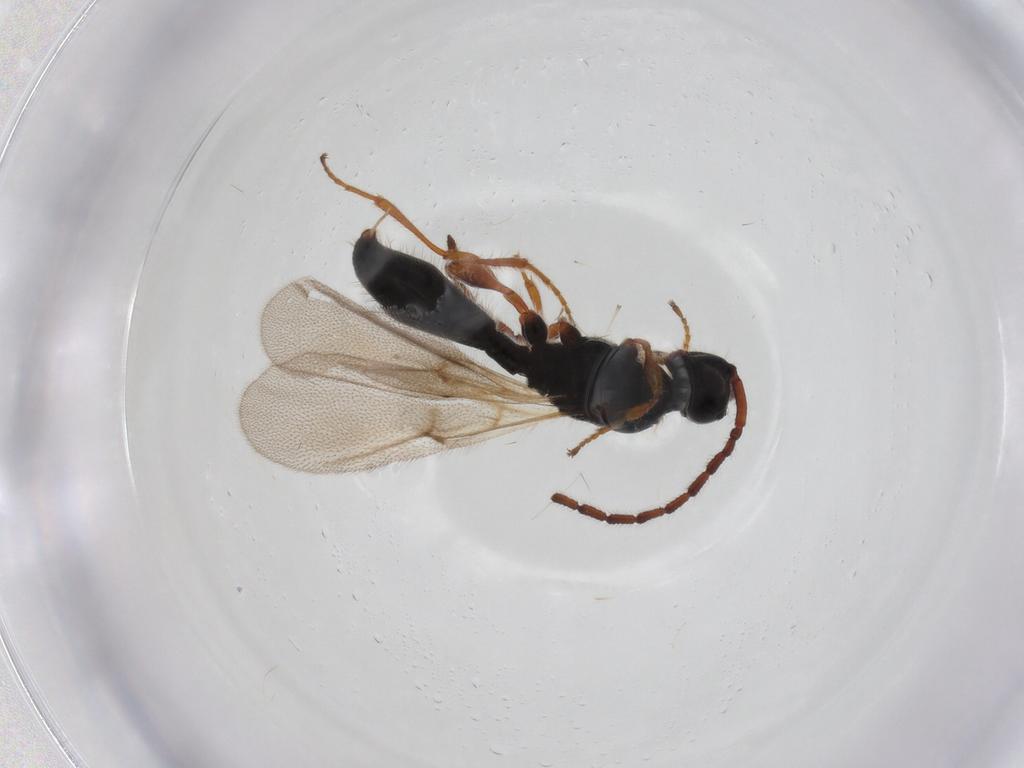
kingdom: Animalia
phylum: Arthropoda
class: Insecta
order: Hymenoptera
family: Diapriidae
